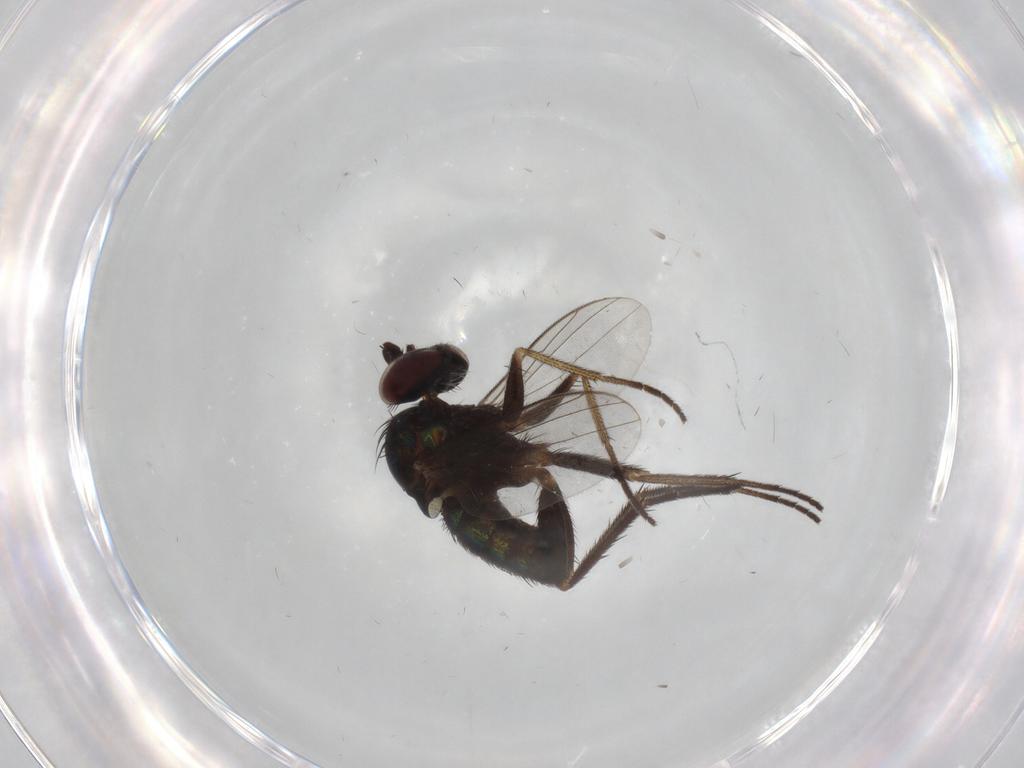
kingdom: Animalia
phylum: Arthropoda
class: Insecta
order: Diptera
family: Dolichopodidae
